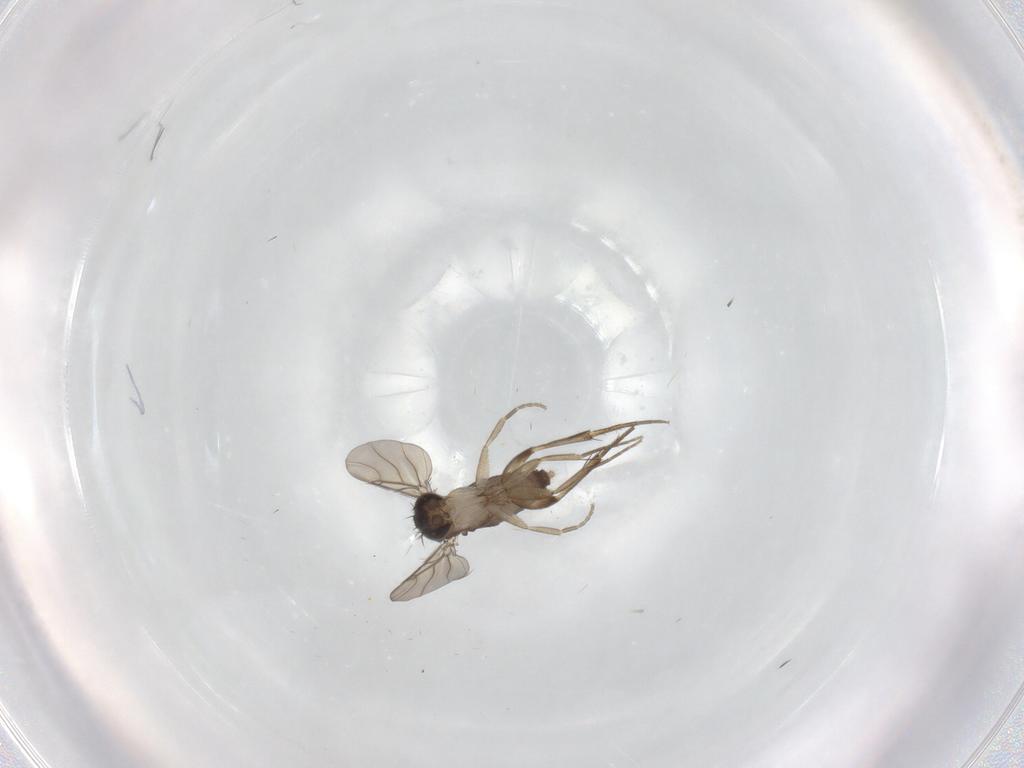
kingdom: Animalia
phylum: Arthropoda
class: Insecta
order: Diptera
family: Phoridae
